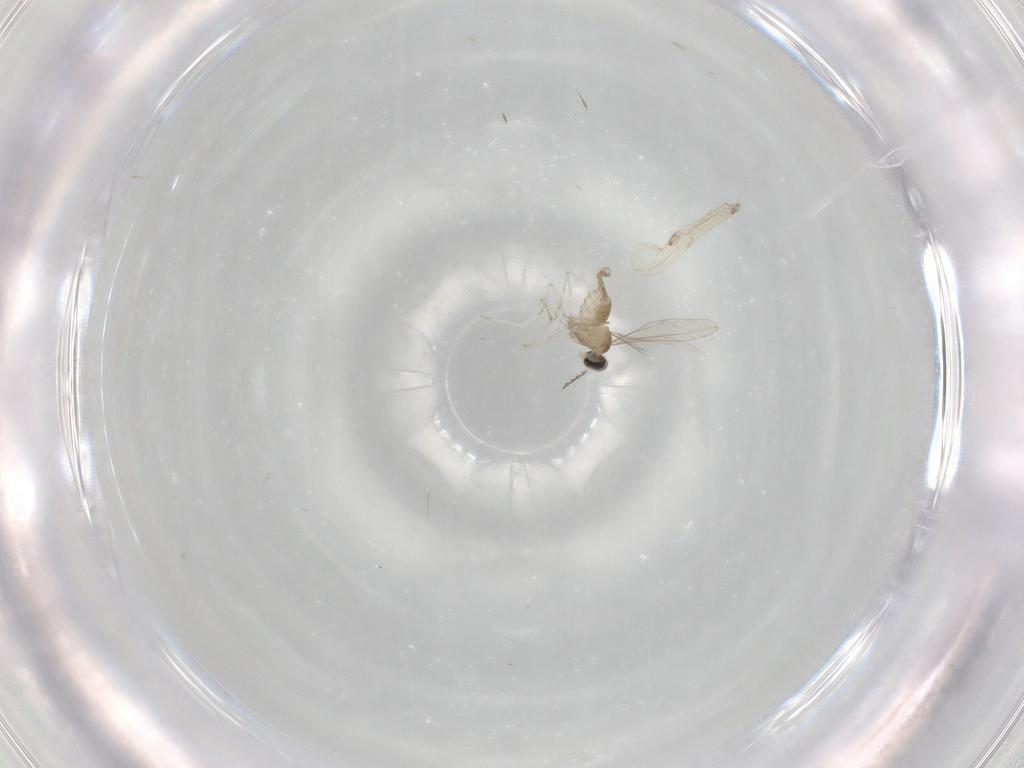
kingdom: Animalia
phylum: Arthropoda
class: Insecta
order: Diptera
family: Cecidomyiidae
